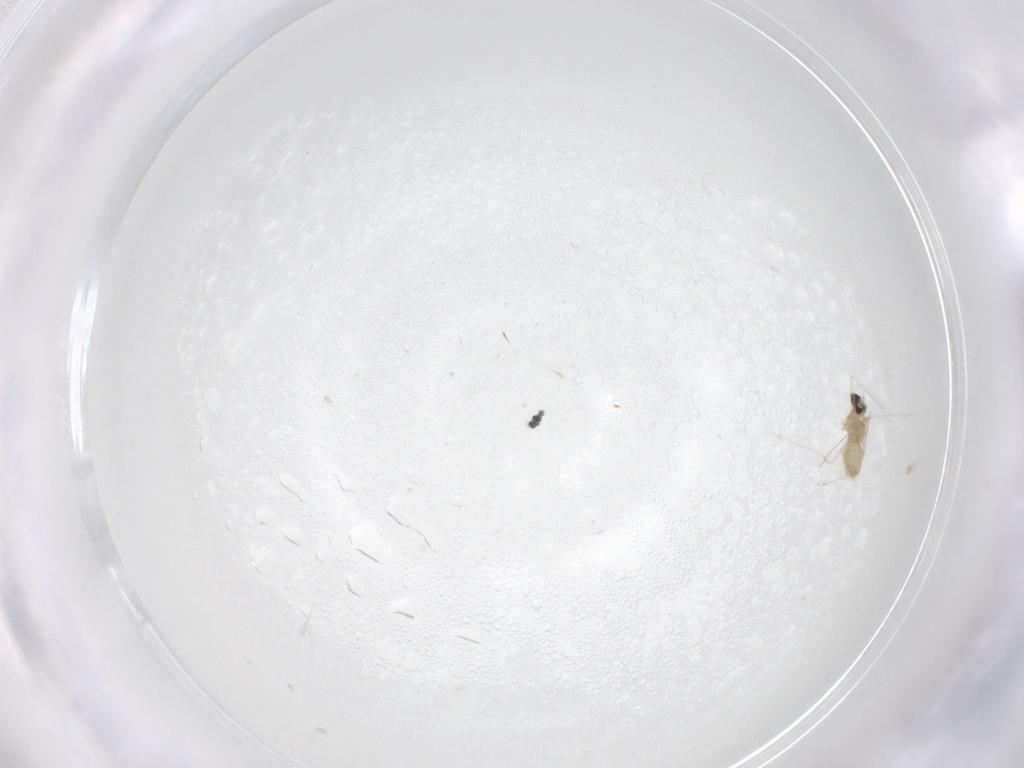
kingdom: Animalia
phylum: Arthropoda
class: Insecta
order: Diptera
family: Cecidomyiidae
